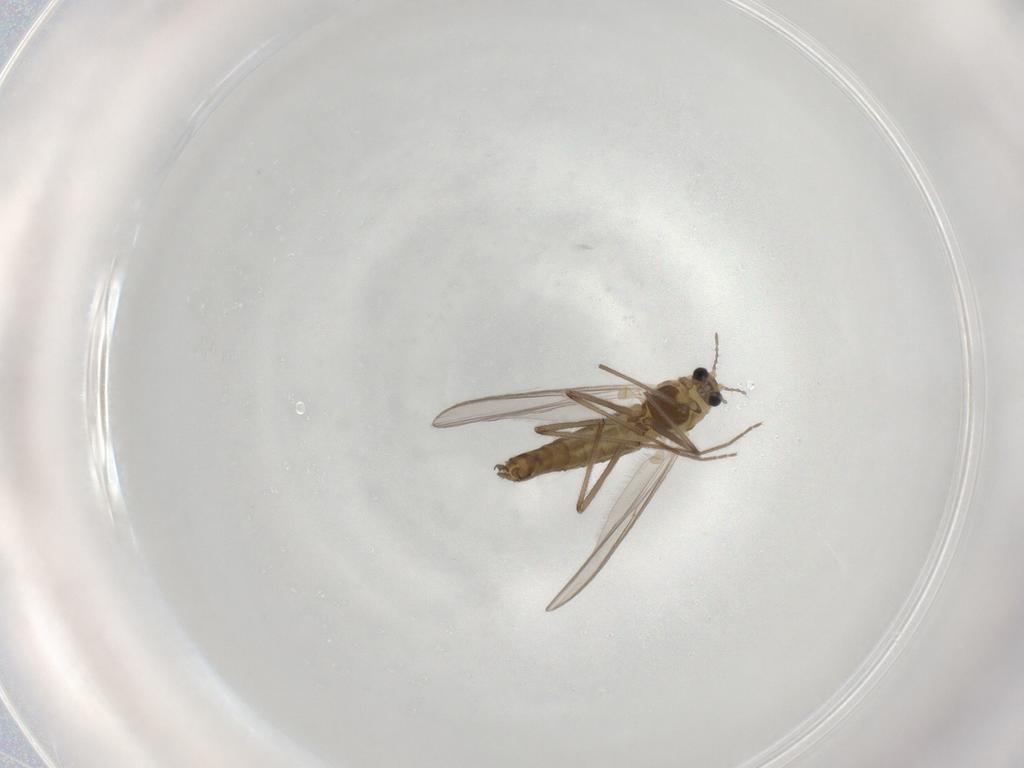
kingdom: Animalia
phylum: Arthropoda
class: Insecta
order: Diptera
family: Chironomidae
